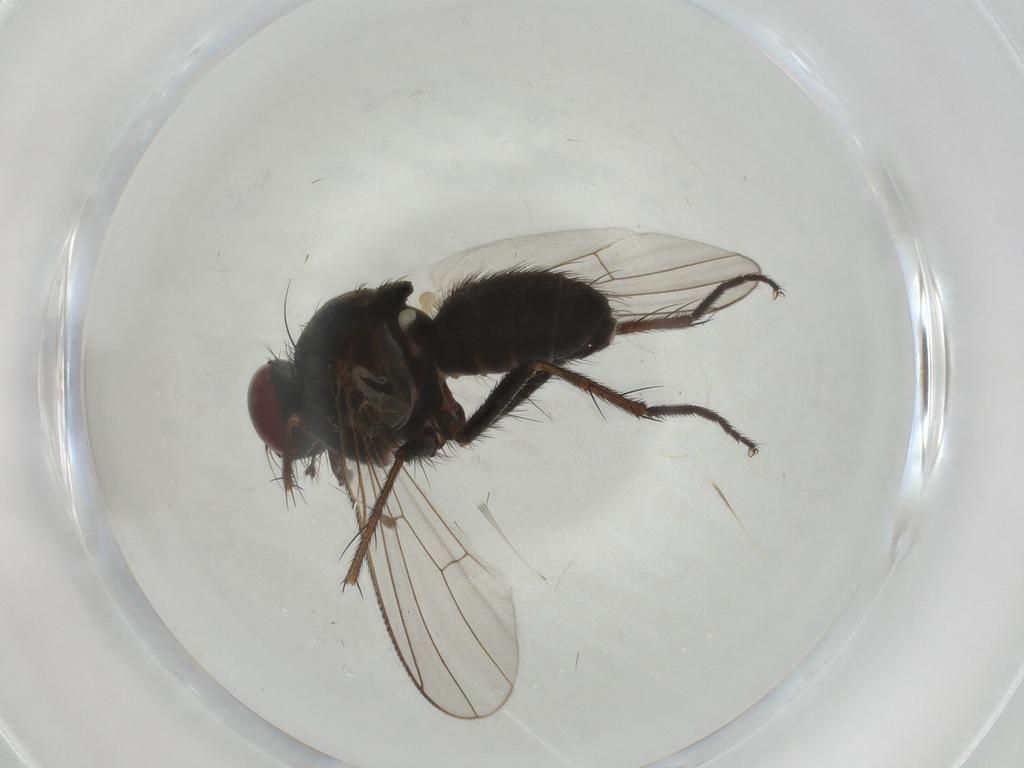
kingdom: Animalia
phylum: Arthropoda
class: Insecta
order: Diptera
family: Muscidae
